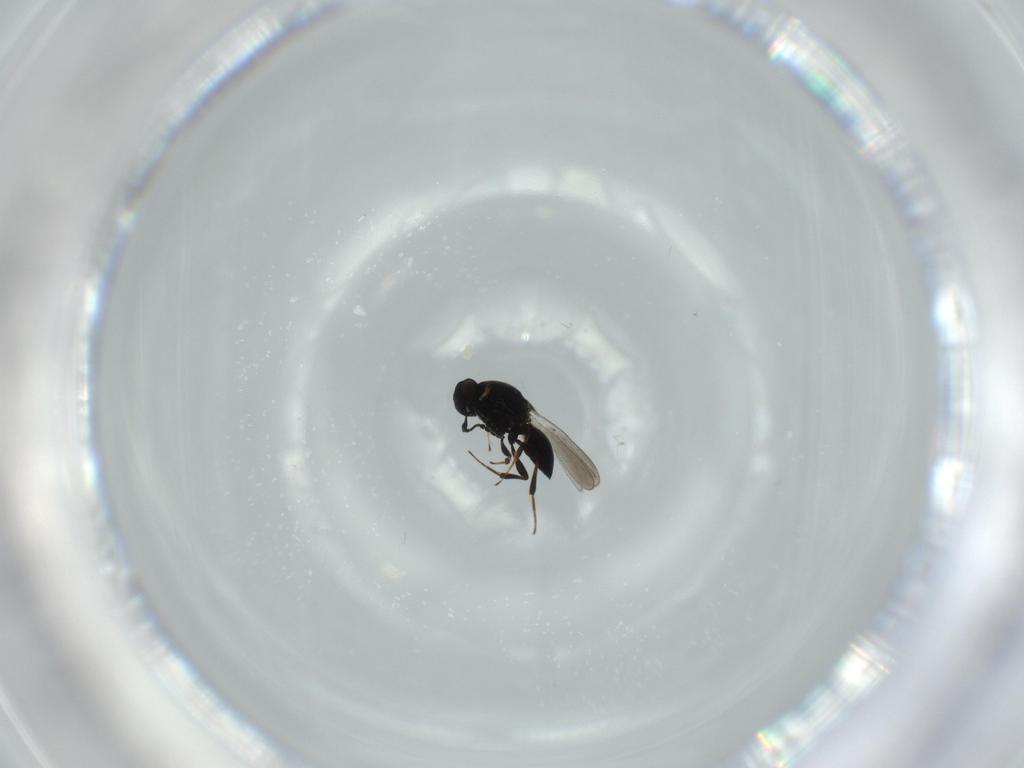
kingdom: Animalia
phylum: Arthropoda
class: Insecta
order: Hymenoptera
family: Platygastridae
